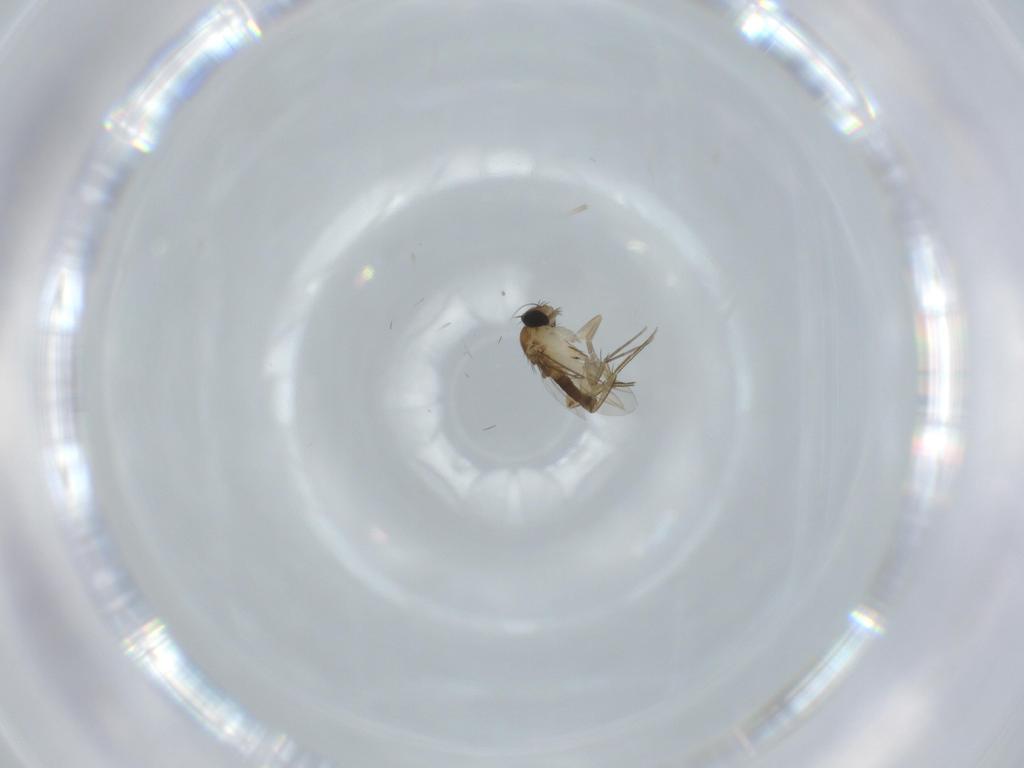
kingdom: Animalia
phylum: Arthropoda
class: Insecta
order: Diptera
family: Phoridae
